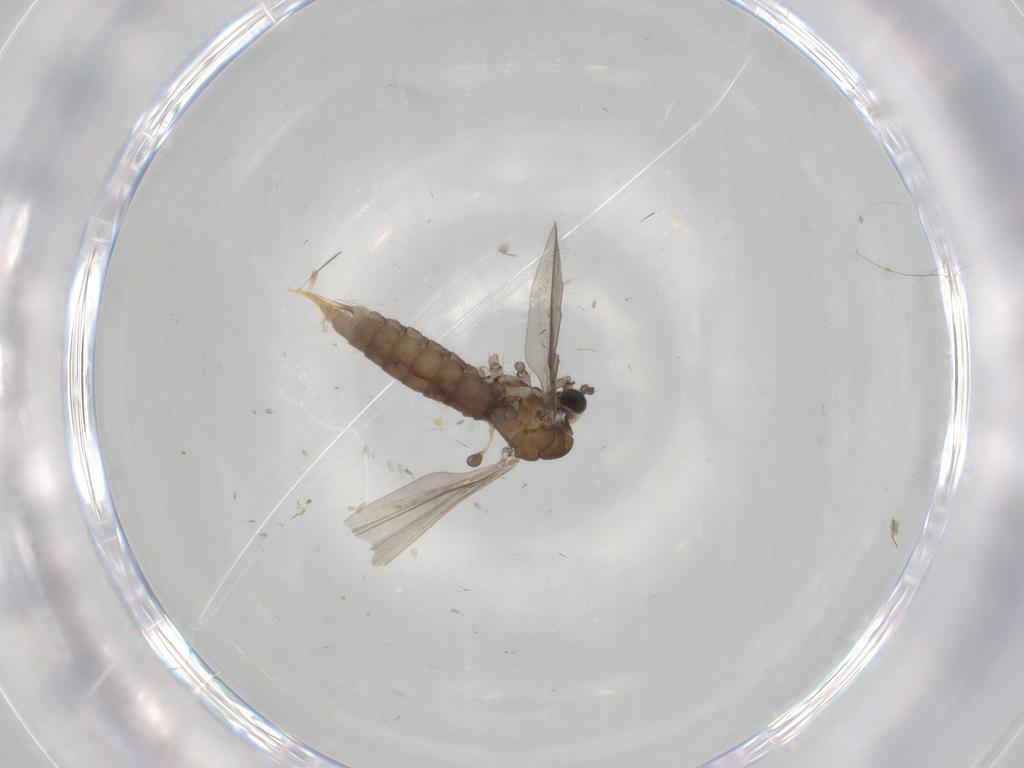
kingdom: Animalia
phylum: Arthropoda
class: Insecta
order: Diptera
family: Limoniidae
